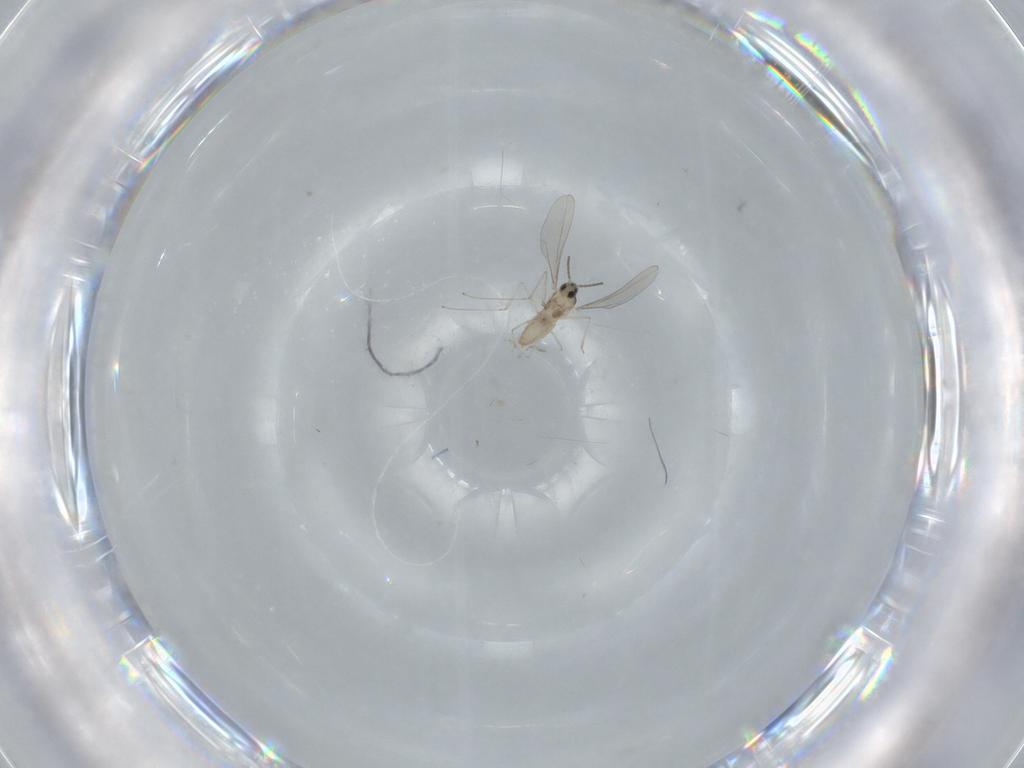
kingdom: Animalia
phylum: Arthropoda
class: Insecta
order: Diptera
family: Cecidomyiidae
